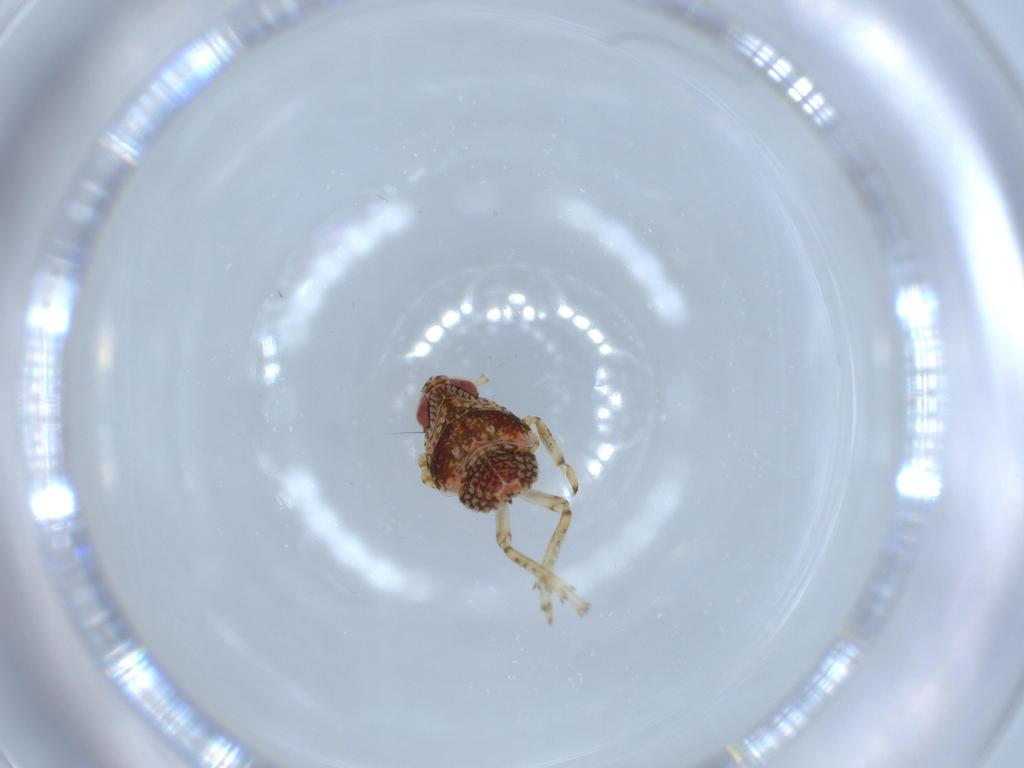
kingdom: Animalia
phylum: Arthropoda
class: Insecta
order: Hemiptera
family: Issidae
